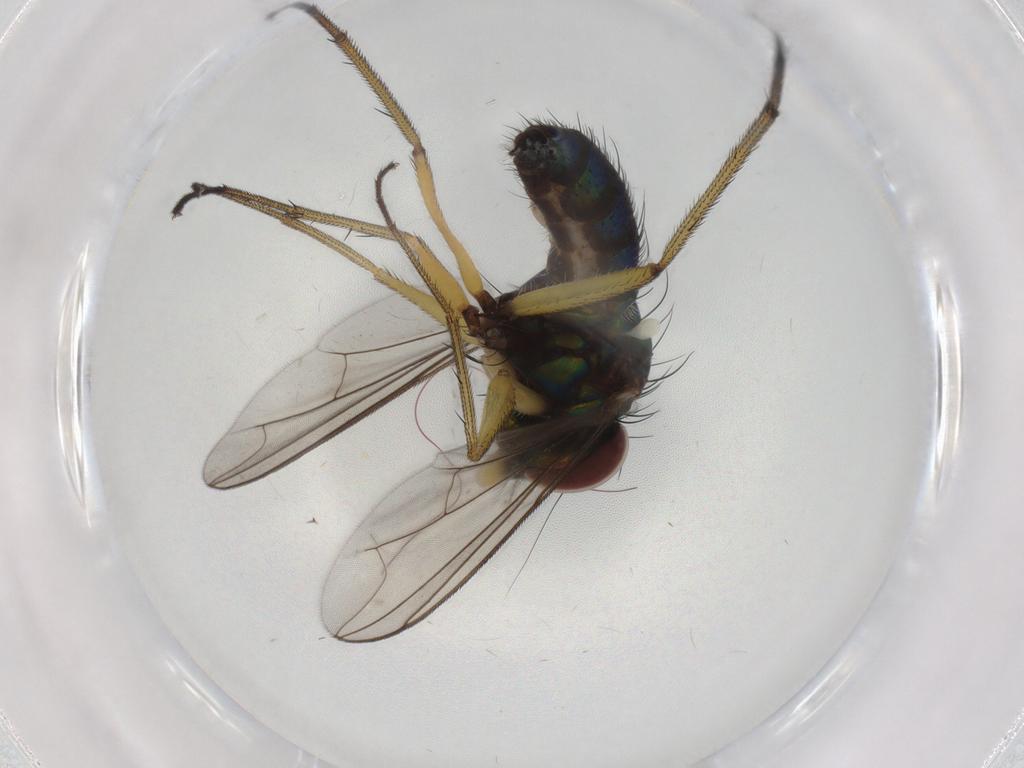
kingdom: Animalia
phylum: Arthropoda
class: Insecta
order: Diptera
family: Dolichopodidae
